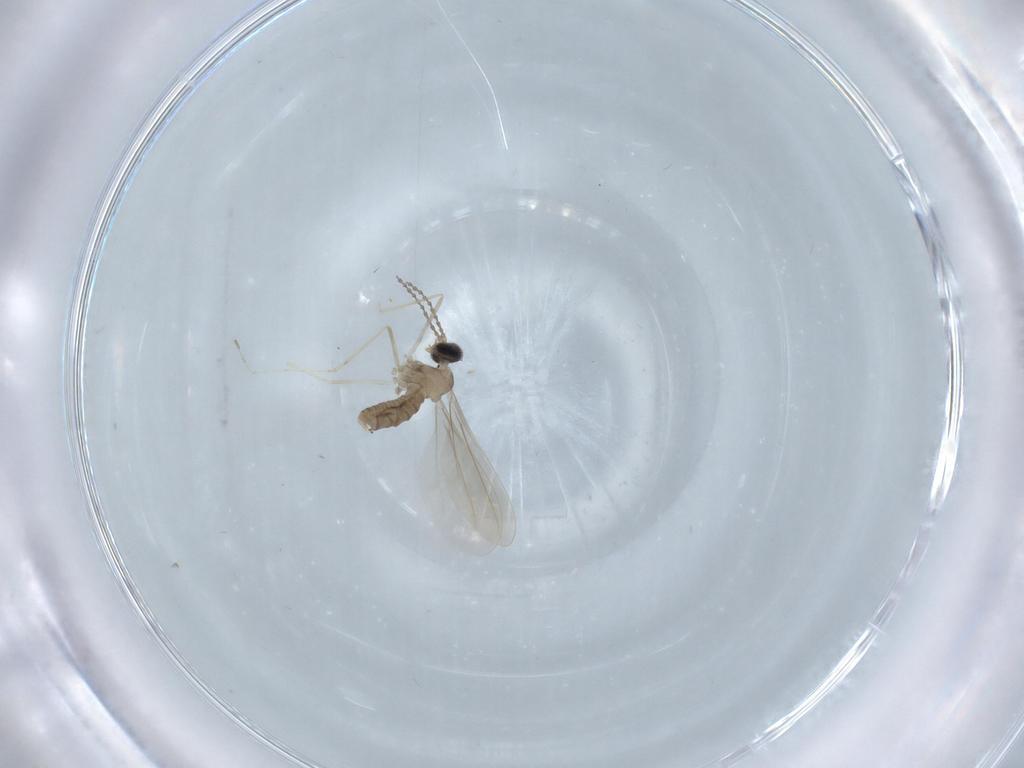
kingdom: Animalia
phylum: Arthropoda
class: Insecta
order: Diptera
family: Cecidomyiidae
